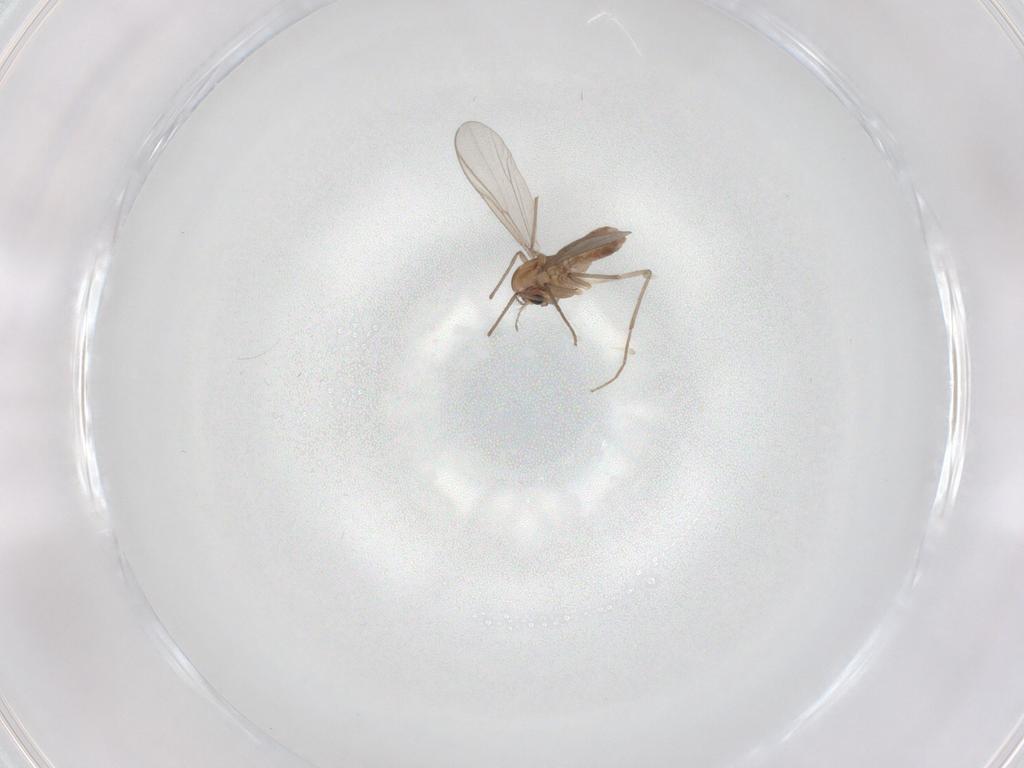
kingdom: Animalia
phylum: Arthropoda
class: Insecta
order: Diptera
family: Chironomidae
